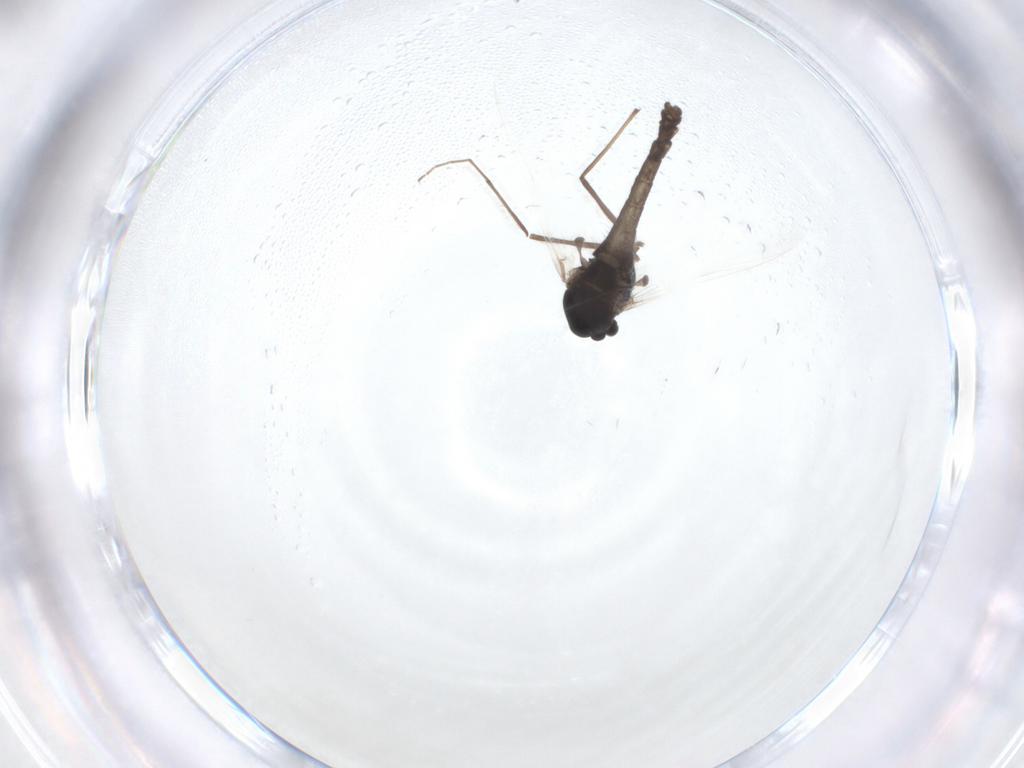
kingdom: Animalia
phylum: Arthropoda
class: Insecta
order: Diptera
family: Chironomidae
